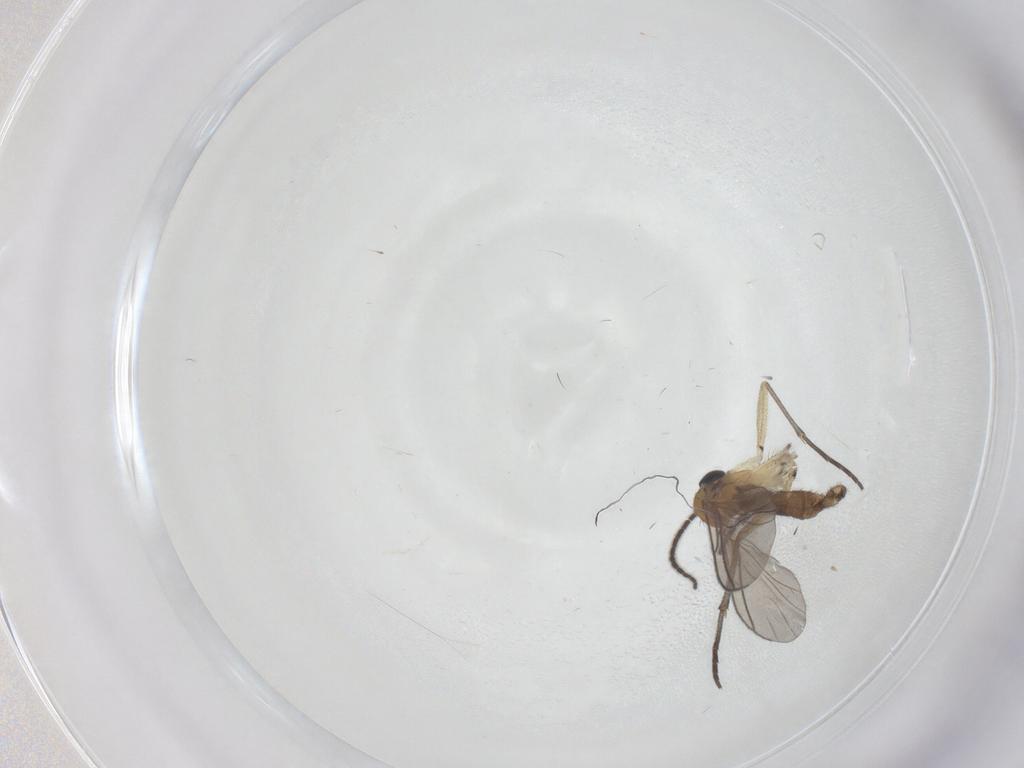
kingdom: Animalia
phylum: Arthropoda
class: Insecta
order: Diptera
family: Sciaridae
